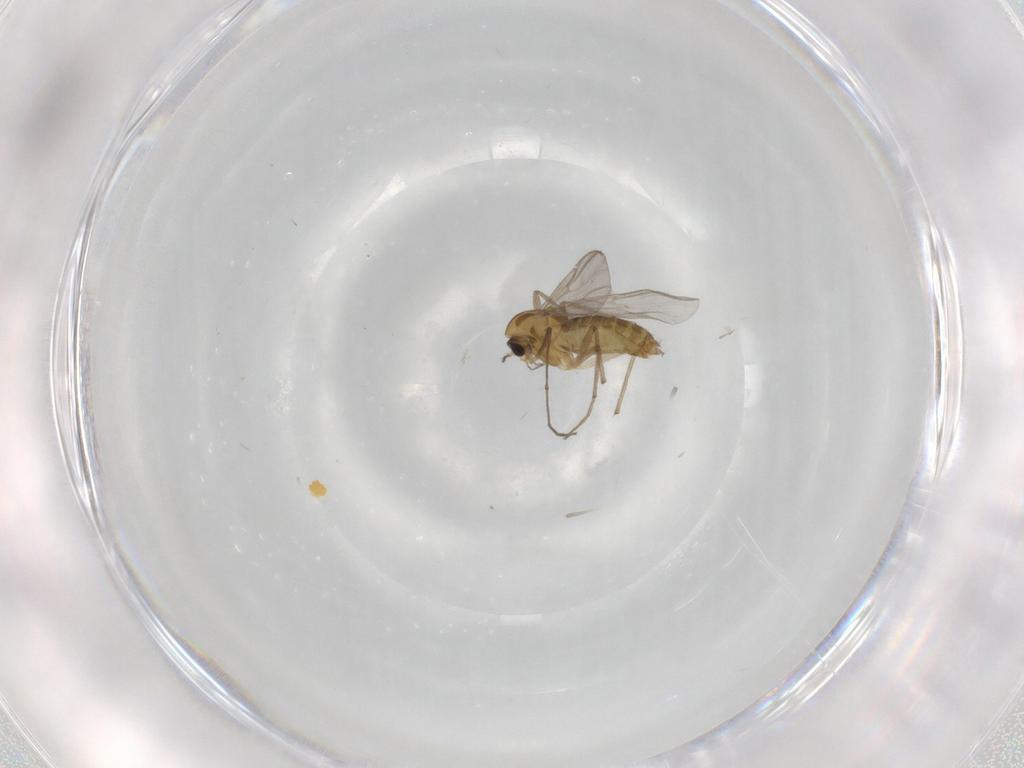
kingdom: Animalia
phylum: Arthropoda
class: Insecta
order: Diptera
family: Chironomidae
